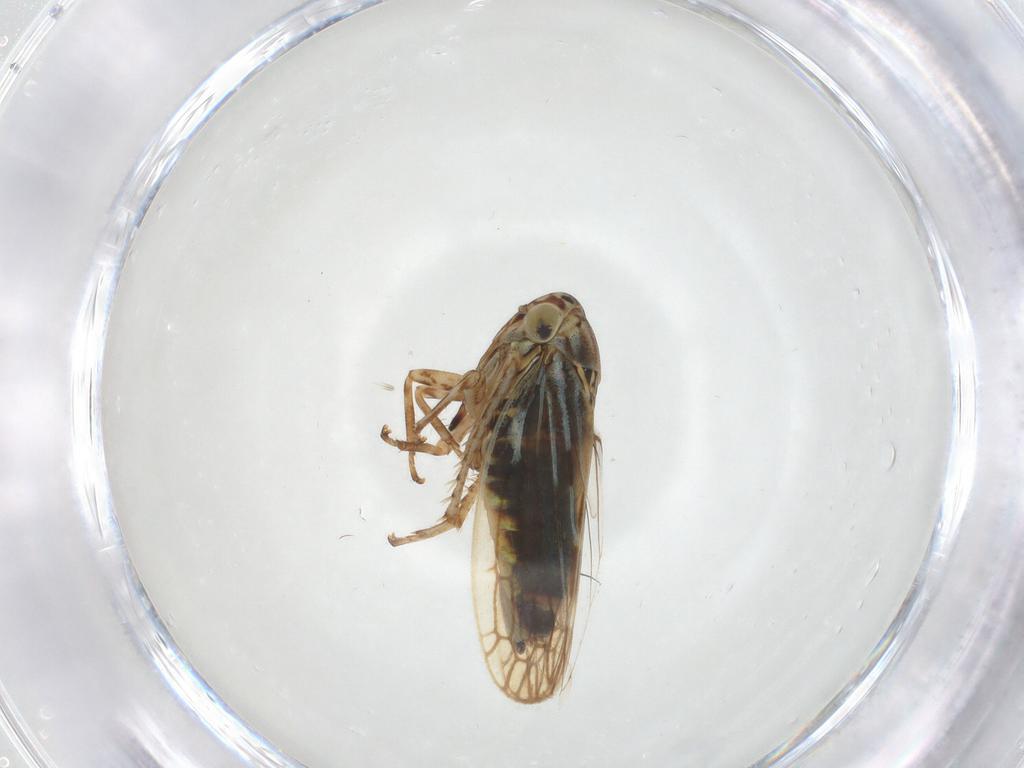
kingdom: Animalia
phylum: Arthropoda
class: Insecta
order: Hemiptera
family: Cicadellidae
